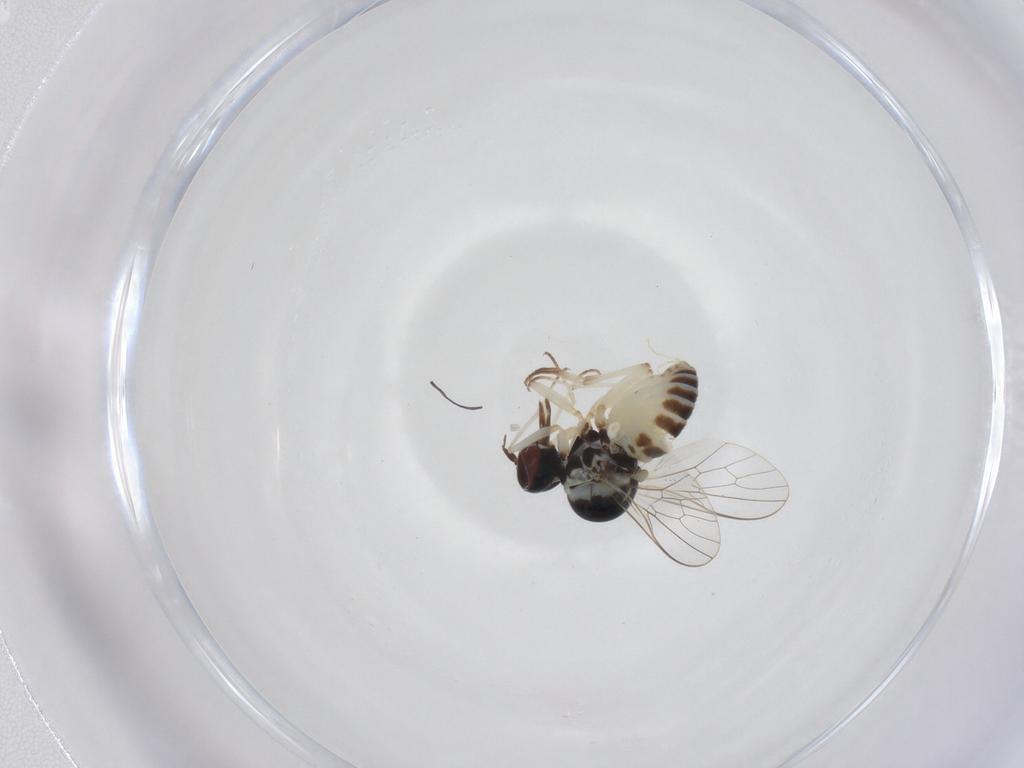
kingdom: Animalia
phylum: Arthropoda
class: Insecta
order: Diptera
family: Mythicomyiidae
